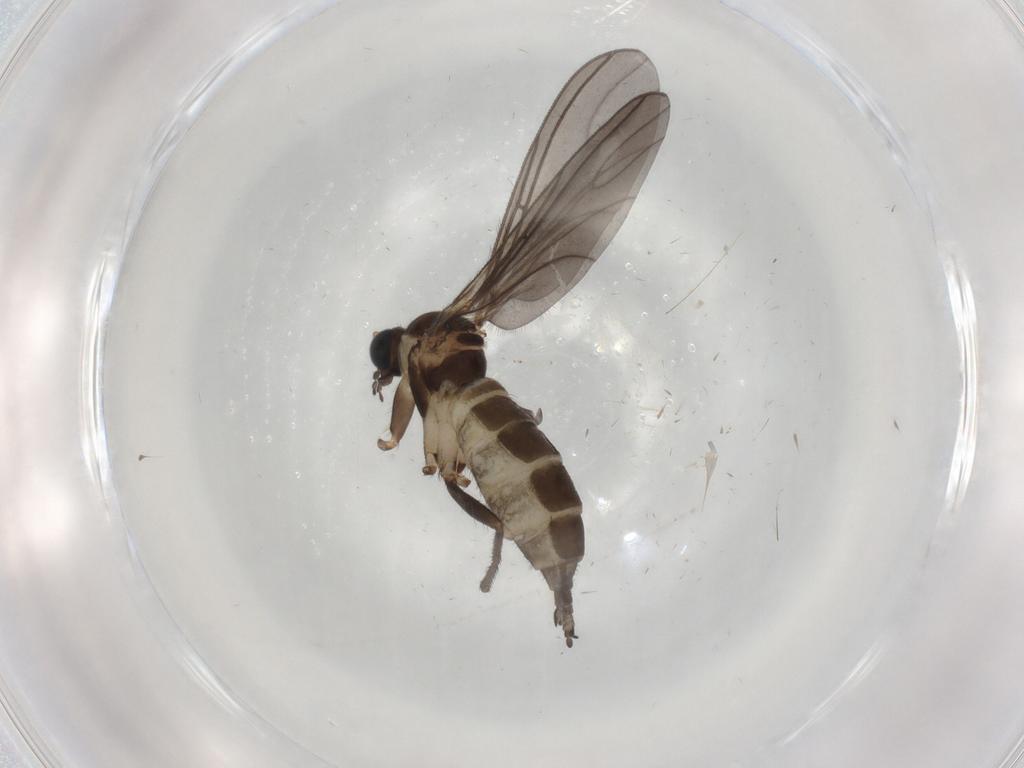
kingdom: Animalia
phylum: Arthropoda
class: Insecta
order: Diptera
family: Sciaridae
